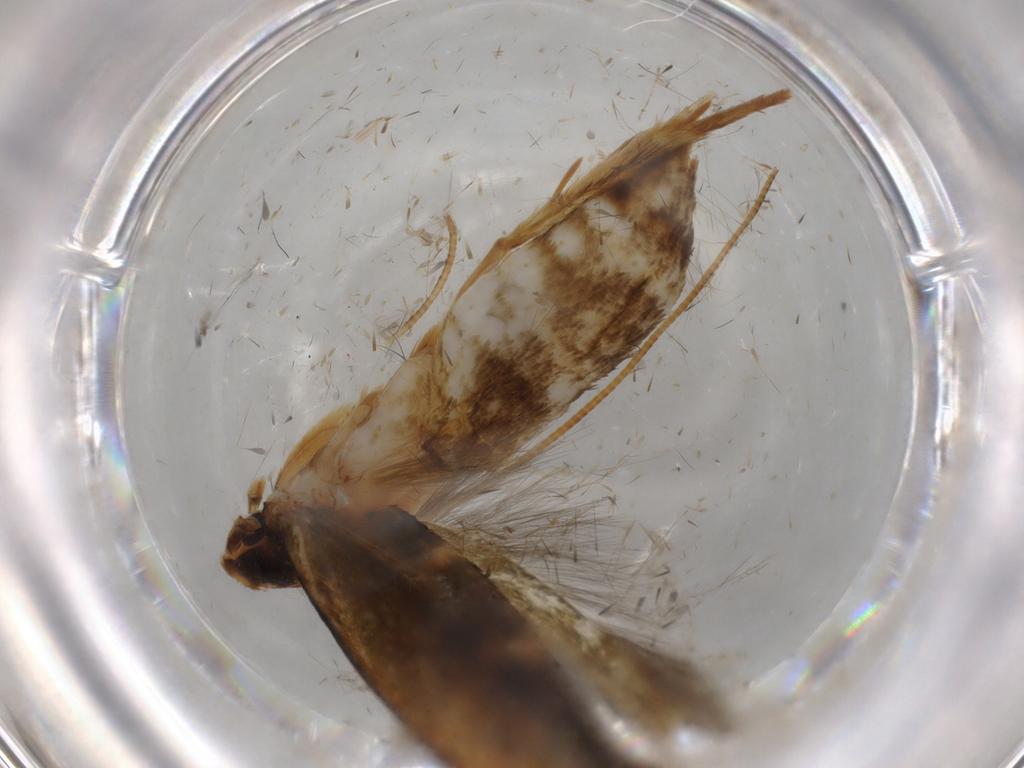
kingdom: Animalia
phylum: Arthropoda
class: Insecta
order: Lepidoptera
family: Tineidae
